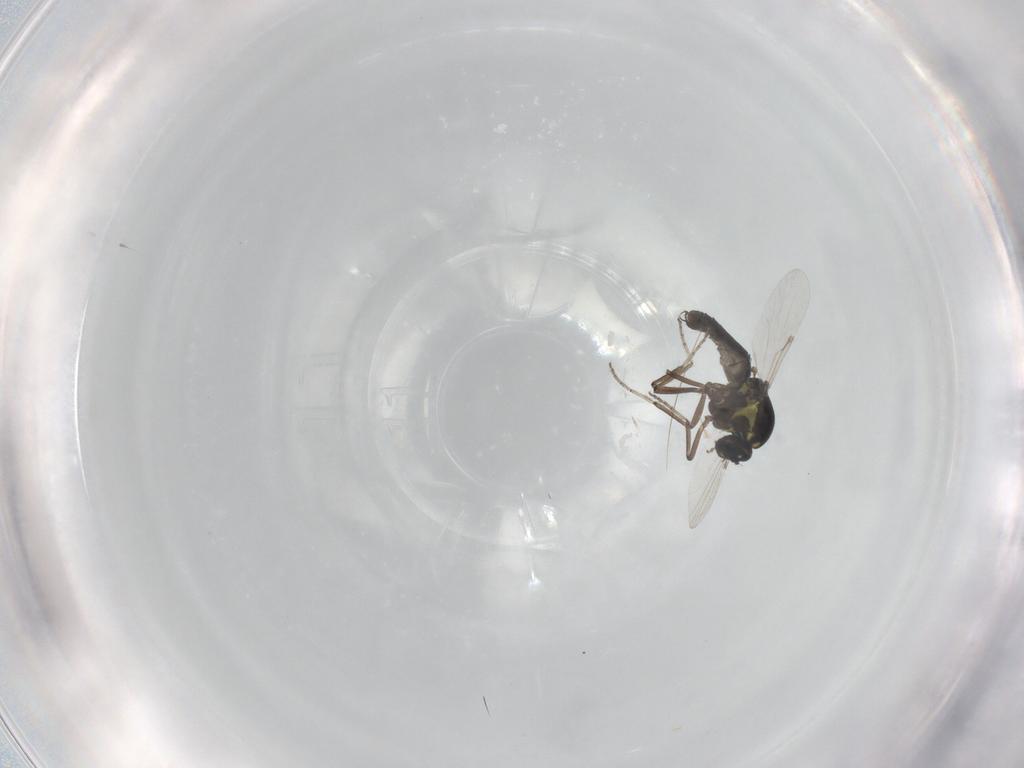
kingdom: Animalia
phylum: Arthropoda
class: Insecta
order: Diptera
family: Ceratopogonidae
